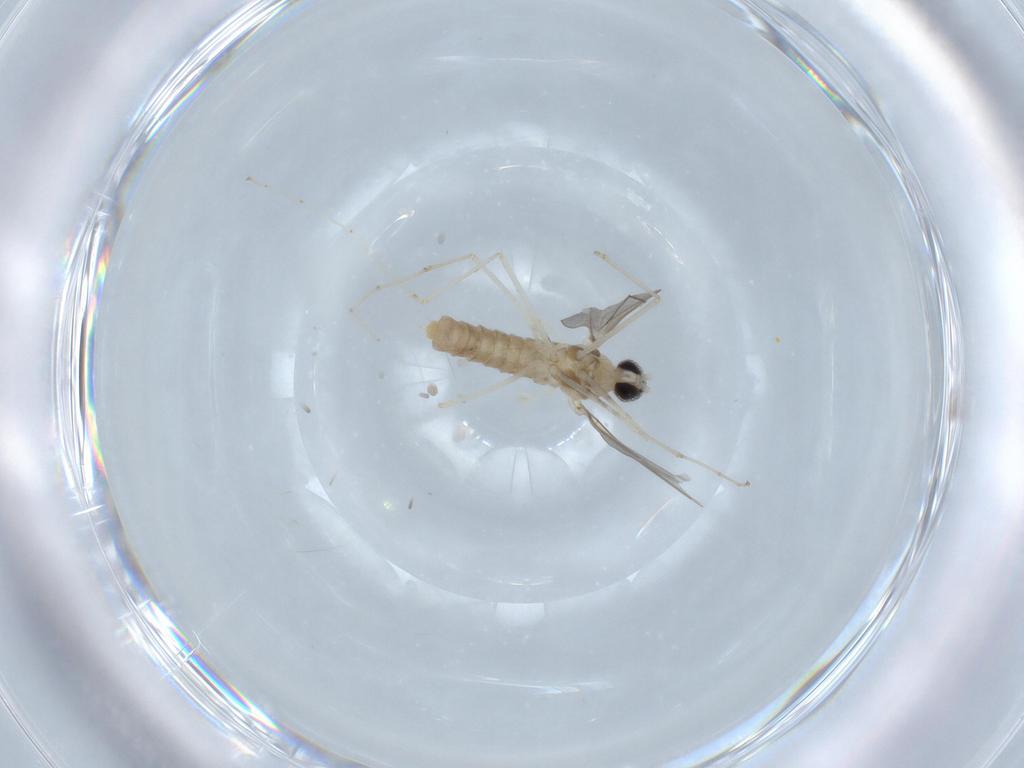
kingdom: Animalia
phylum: Arthropoda
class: Insecta
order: Diptera
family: Cecidomyiidae
